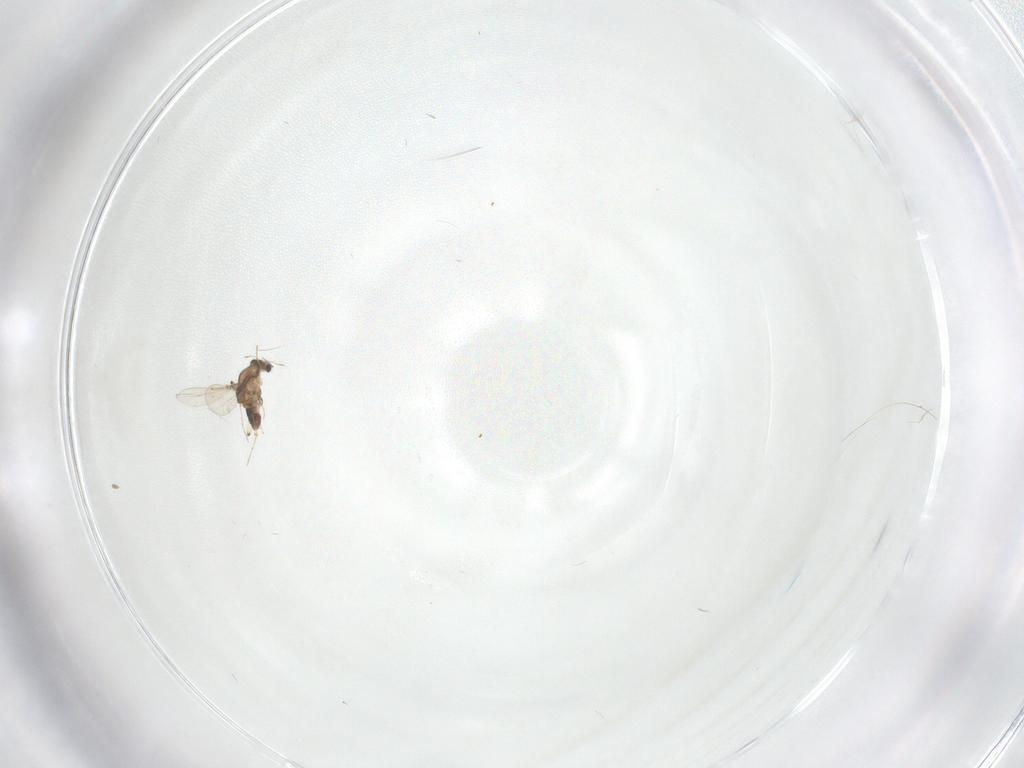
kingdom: Animalia
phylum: Arthropoda
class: Insecta
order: Diptera
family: Chironomidae
